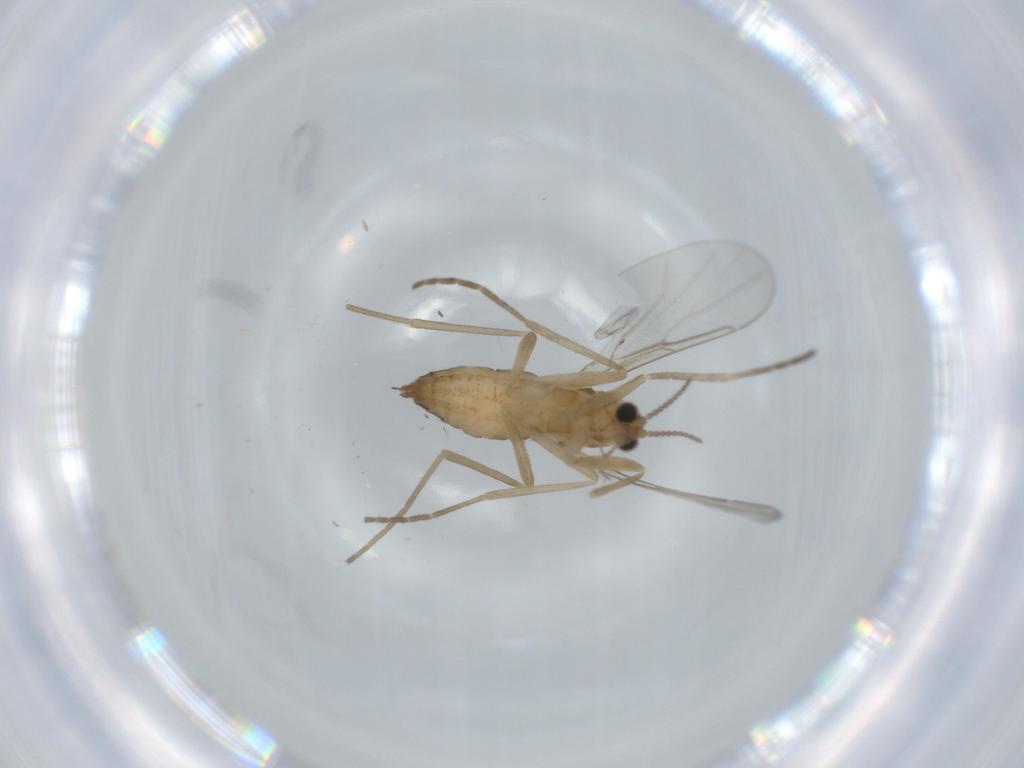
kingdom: Animalia
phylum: Arthropoda
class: Insecta
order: Diptera
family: Cecidomyiidae
